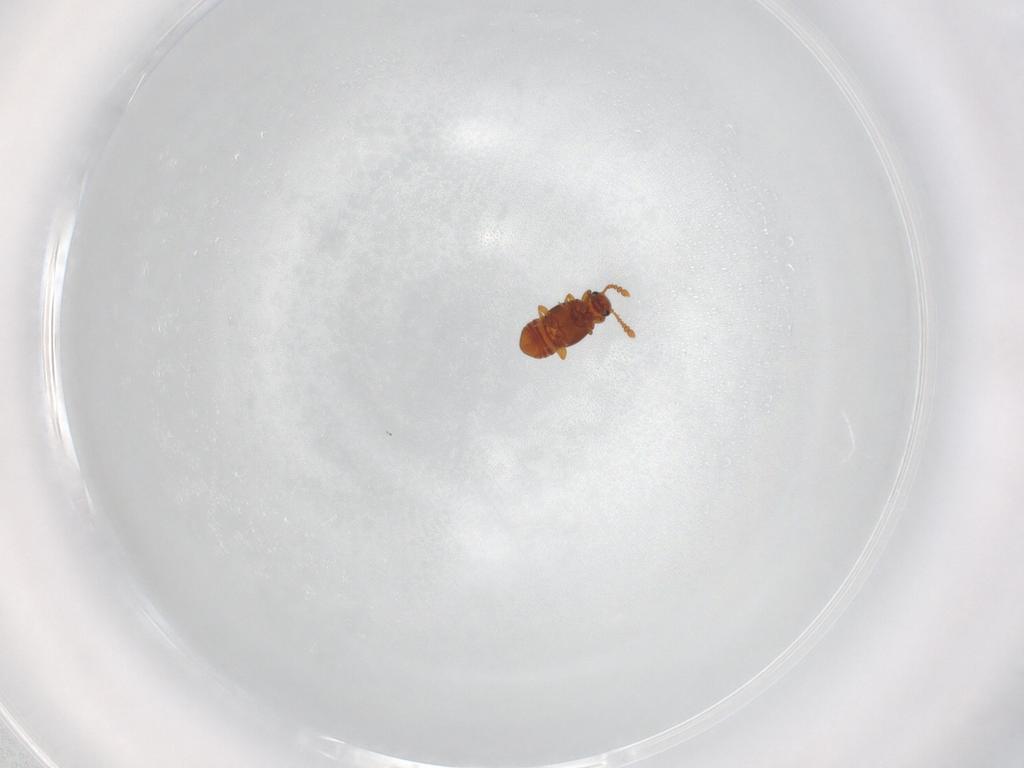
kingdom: Animalia
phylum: Arthropoda
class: Insecta
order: Coleoptera
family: Staphylinidae
